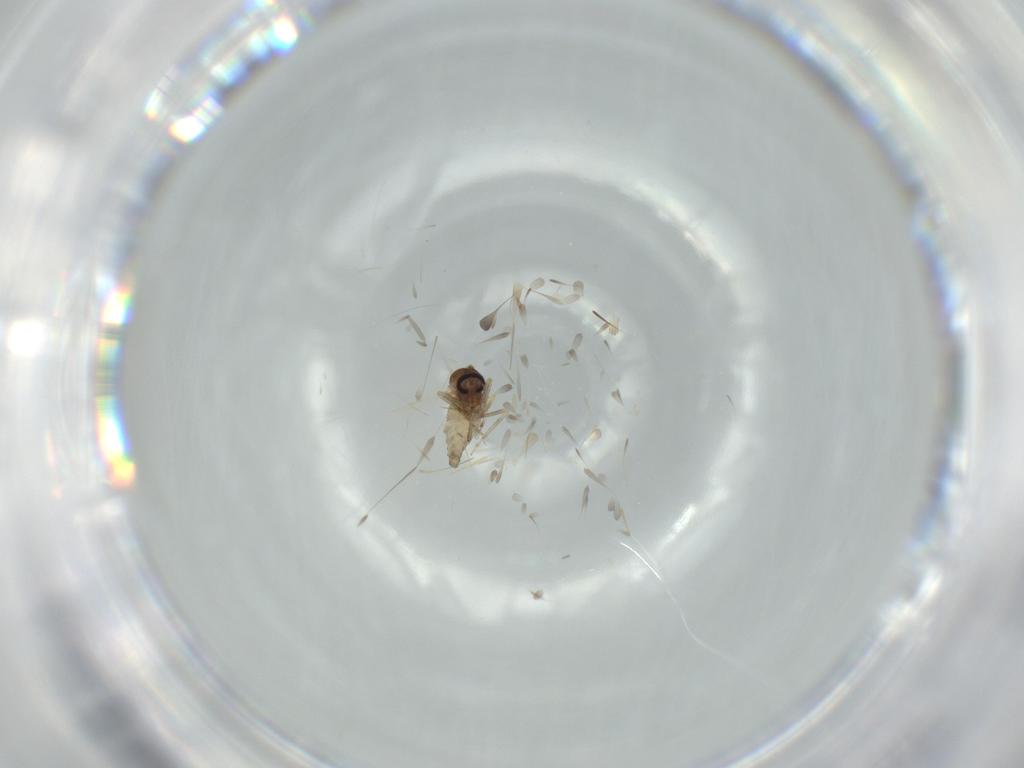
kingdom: Animalia
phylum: Arthropoda
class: Insecta
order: Diptera
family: Ceratopogonidae
